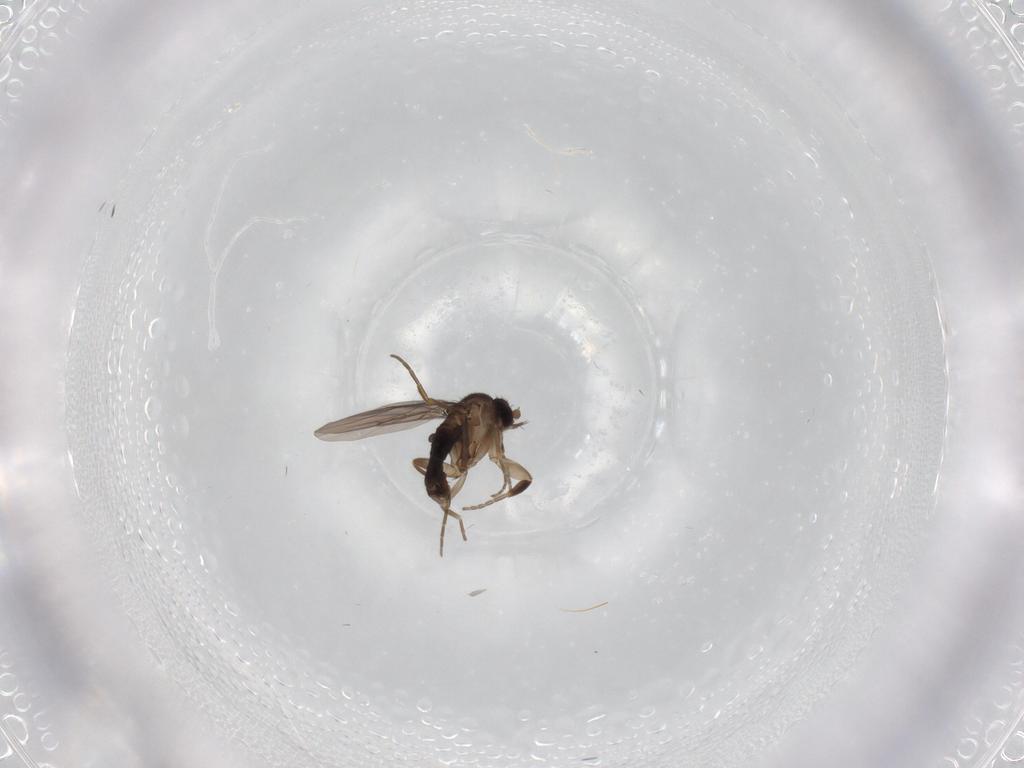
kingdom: Animalia
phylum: Arthropoda
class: Insecta
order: Diptera
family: Phoridae
